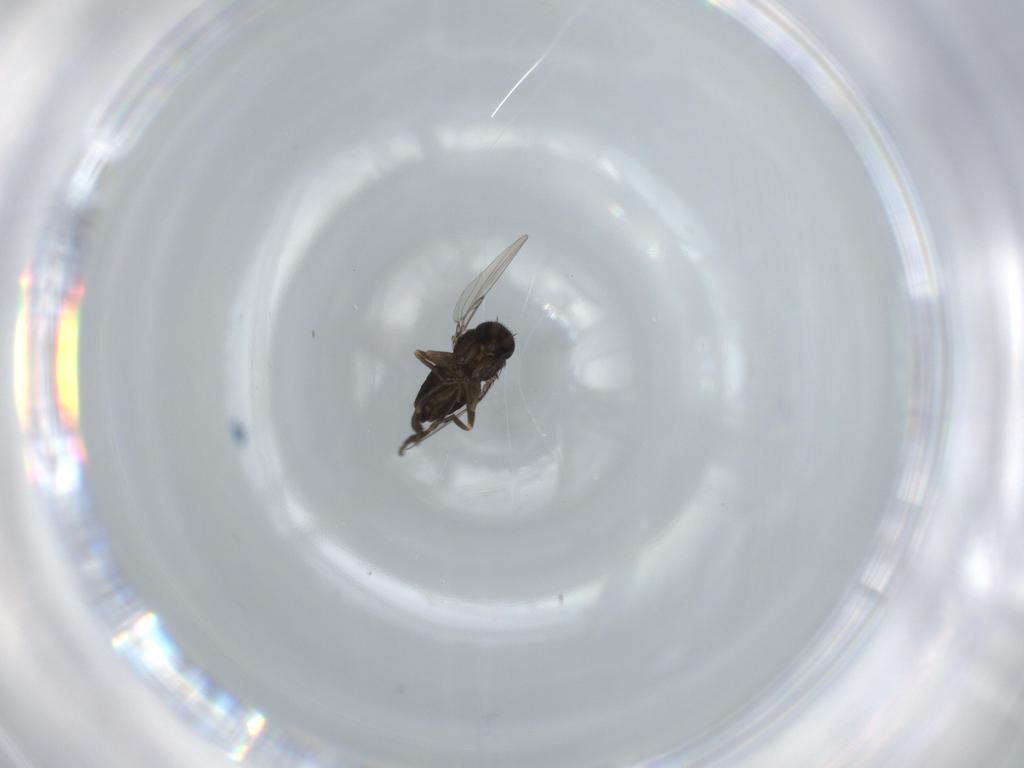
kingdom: Animalia
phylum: Arthropoda
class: Insecta
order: Diptera
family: Phoridae
